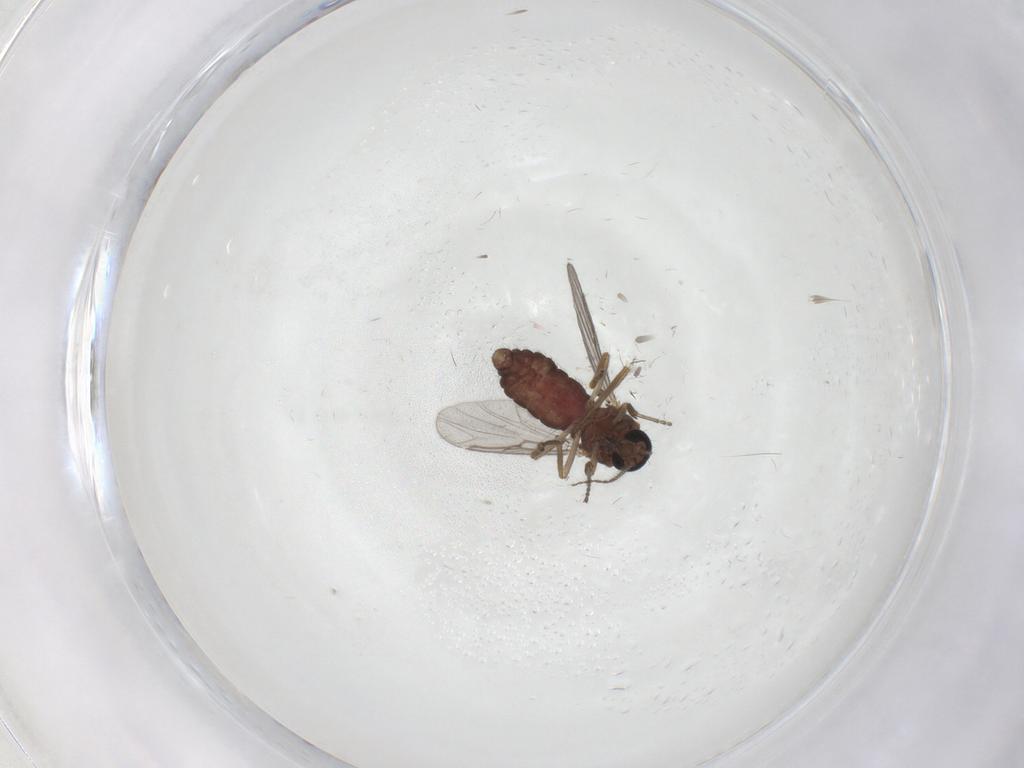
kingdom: Animalia
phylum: Arthropoda
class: Insecta
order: Diptera
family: Ceratopogonidae
